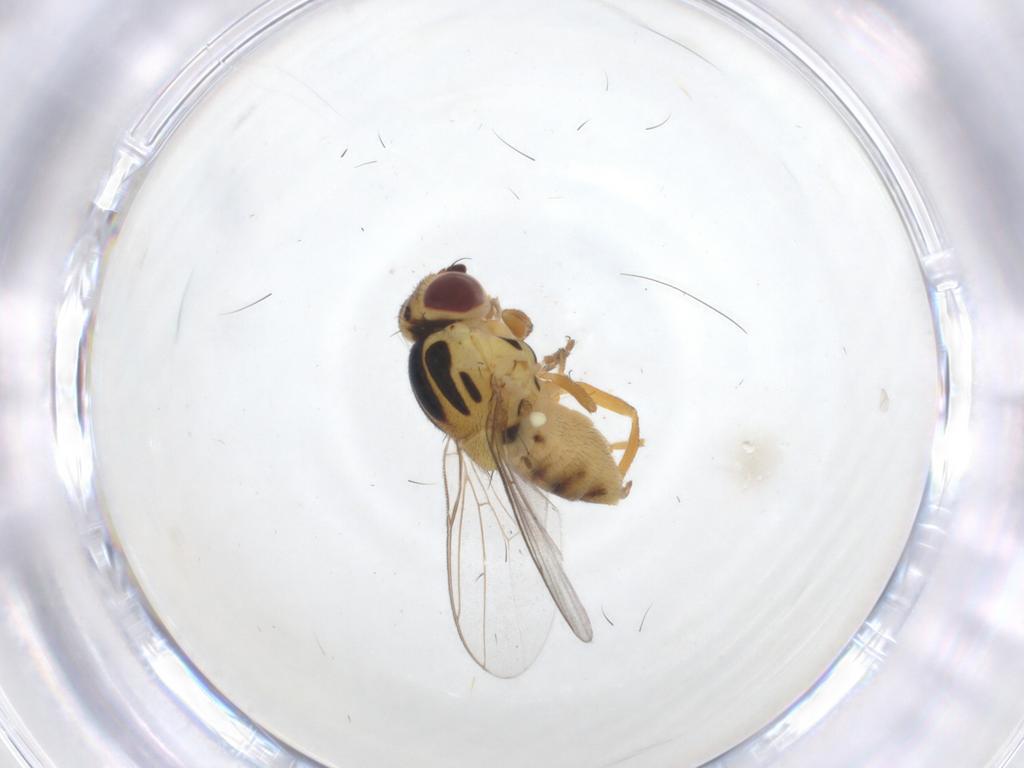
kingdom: Animalia
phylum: Arthropoda
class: Insecta
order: Diptera
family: Chloropidae
